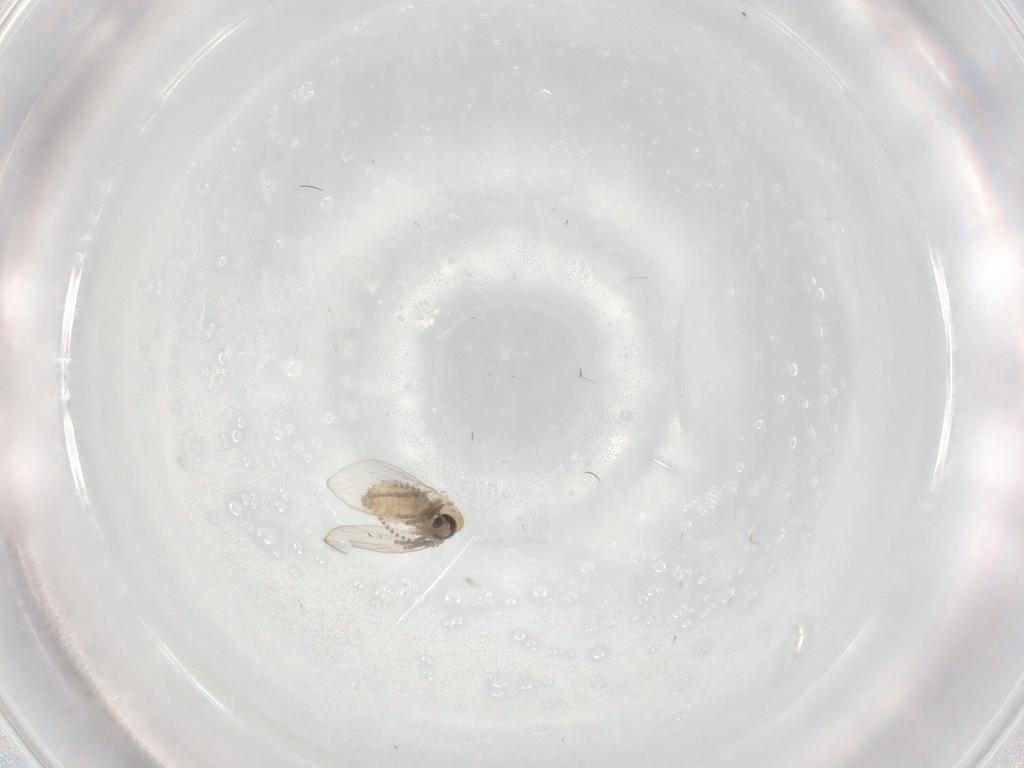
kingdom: Animalia
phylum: Arthropoda
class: Insecta
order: Diptera
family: Psychodidae
